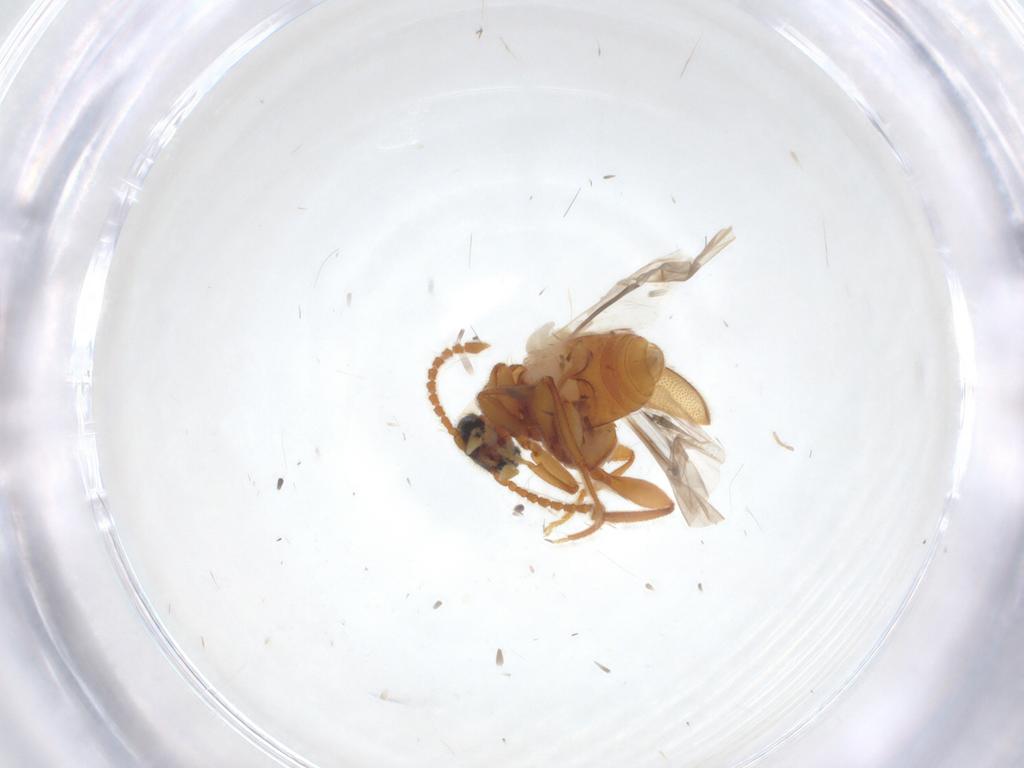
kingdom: Animalia
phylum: Arthropoda
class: Insecta
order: Coleoptera
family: Aderidae
